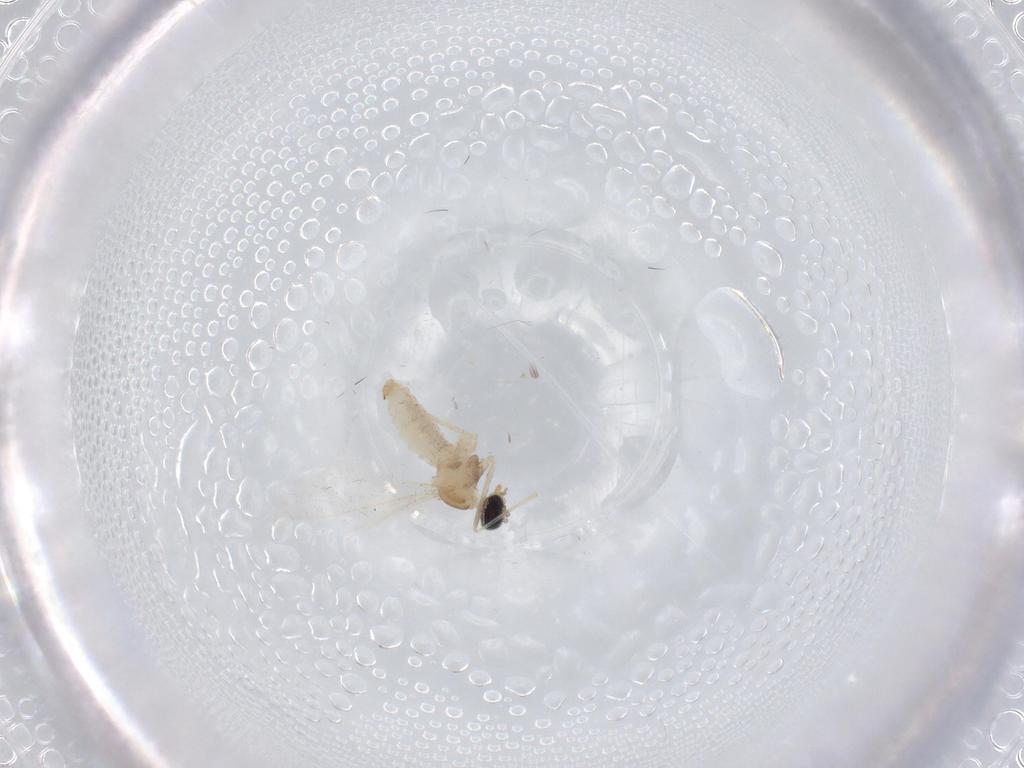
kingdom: Animalia
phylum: Arthropoda
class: Insecta
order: Diptera
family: Cecidomyiidae
